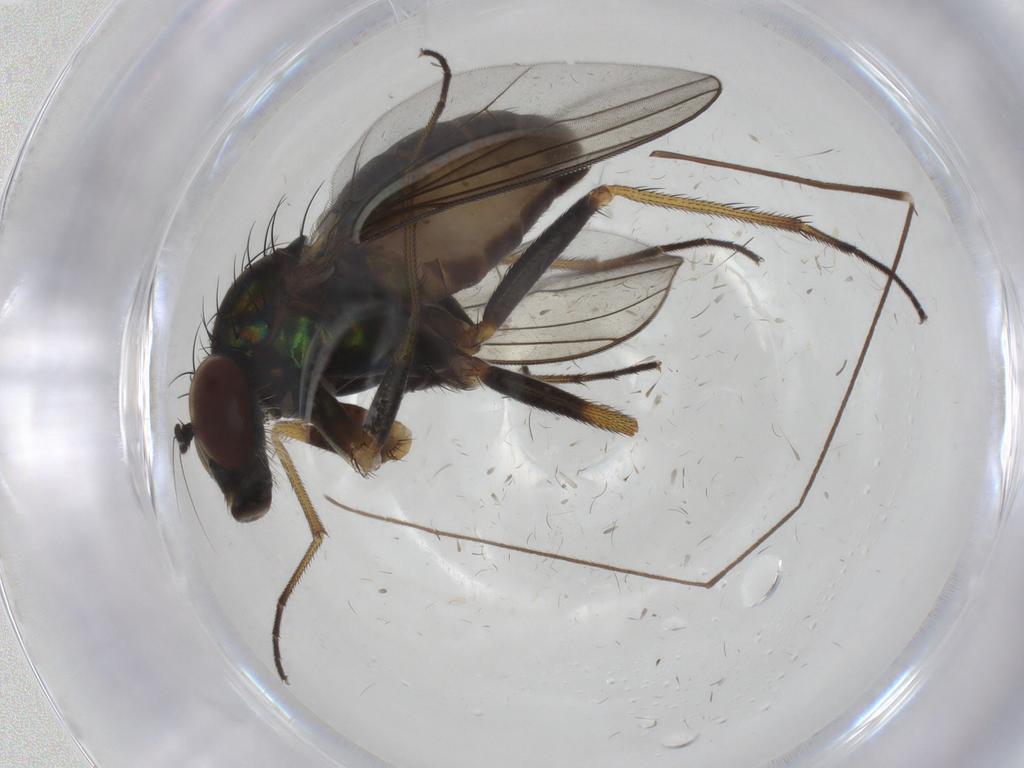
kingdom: Animalia
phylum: Arthropoda
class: Insecta
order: Diptera
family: Dolichopodidae
